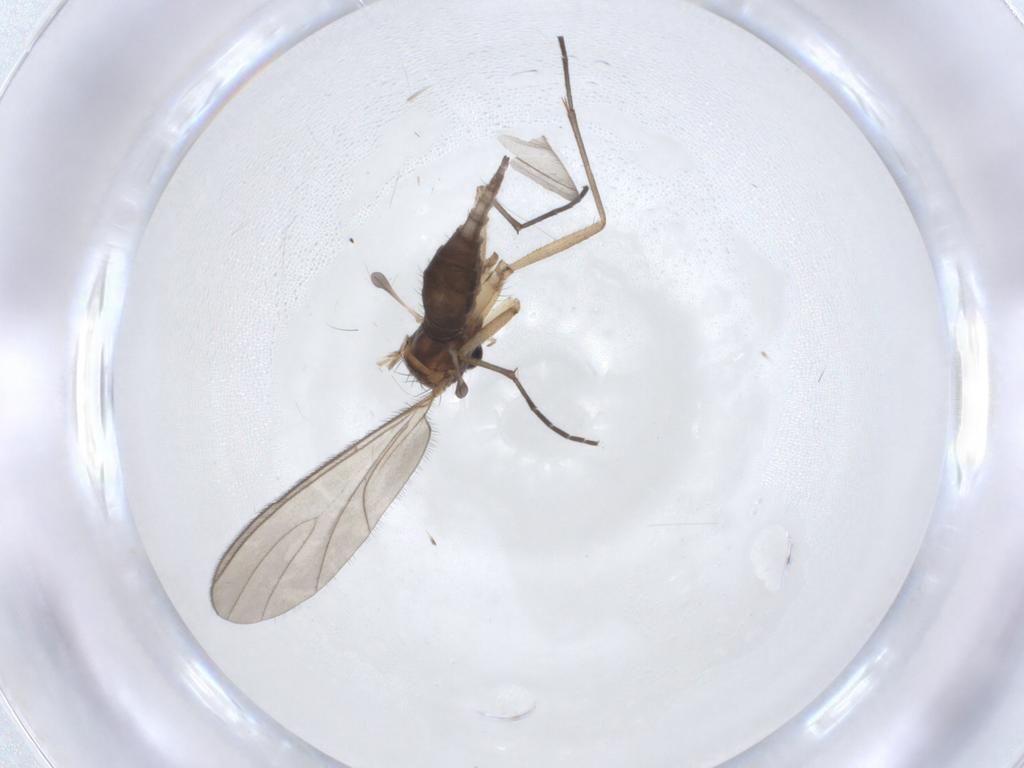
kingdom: Animalia
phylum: Arthropoda
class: Insecta
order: Diptera
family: Sciaridae
